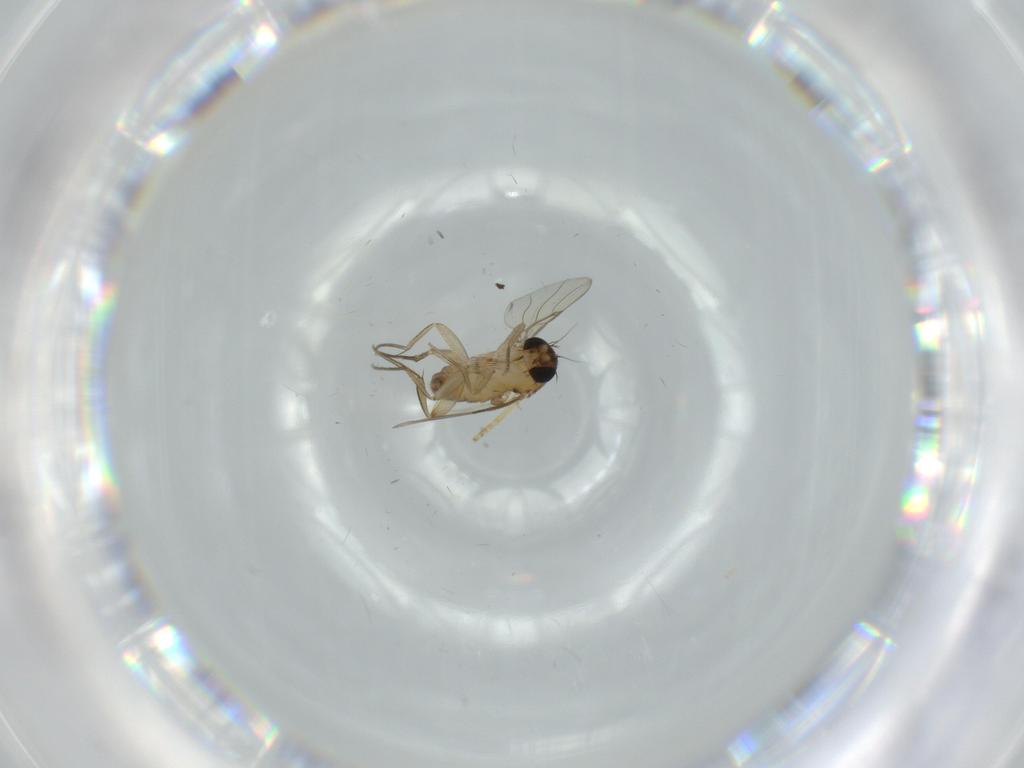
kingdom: Animalia
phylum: Arthropoda
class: Insecta
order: Diptera
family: Phoridae
